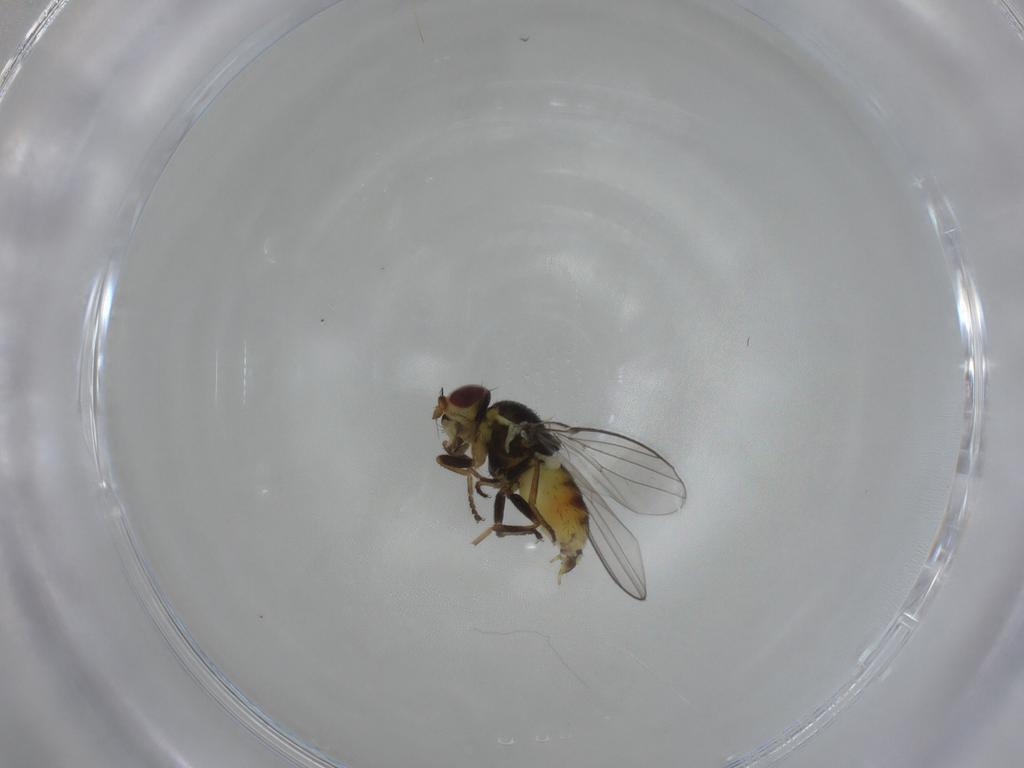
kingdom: Animalia
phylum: Arthropoda
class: Insecta
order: Diptera
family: Chloropidae
